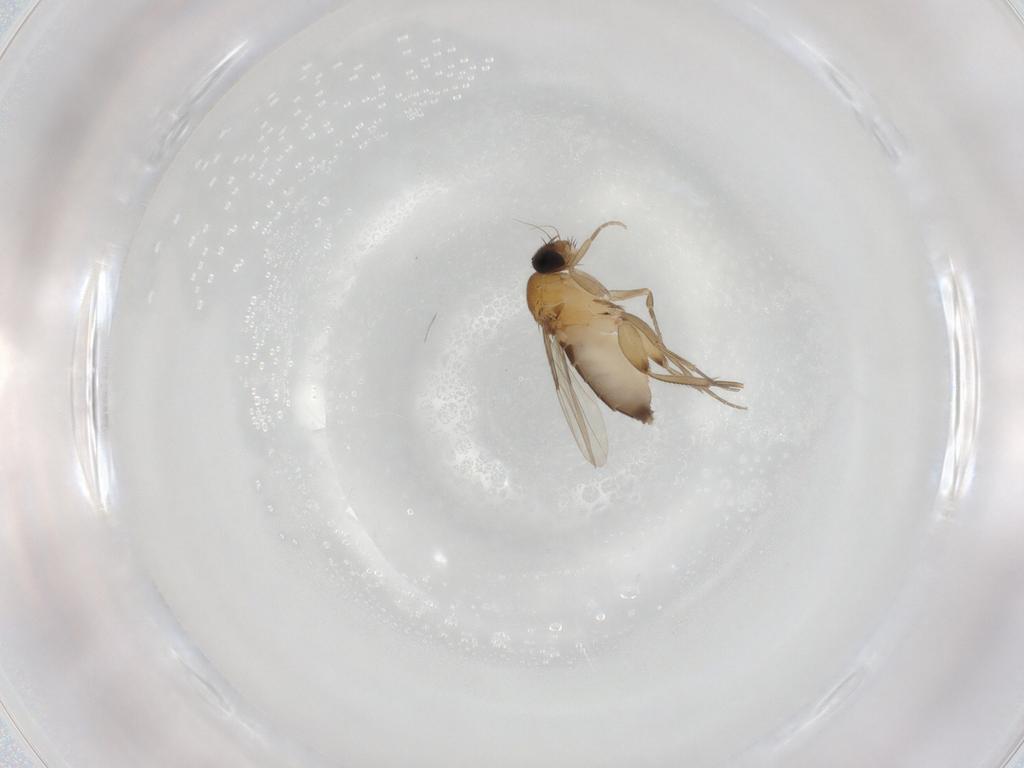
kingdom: Animalia
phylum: Arthropoda
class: Insecta
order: Diptera
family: Phoridae
